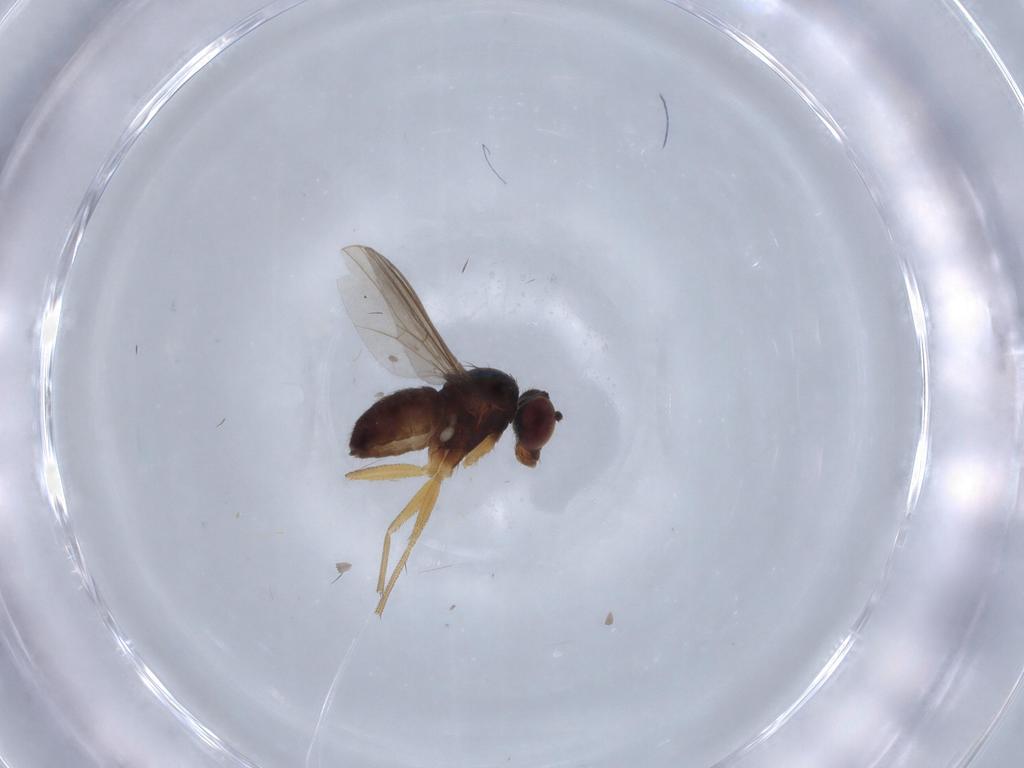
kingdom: Animalia
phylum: Arthropoda
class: Insecta
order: Diptera
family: Dolichopodidae
